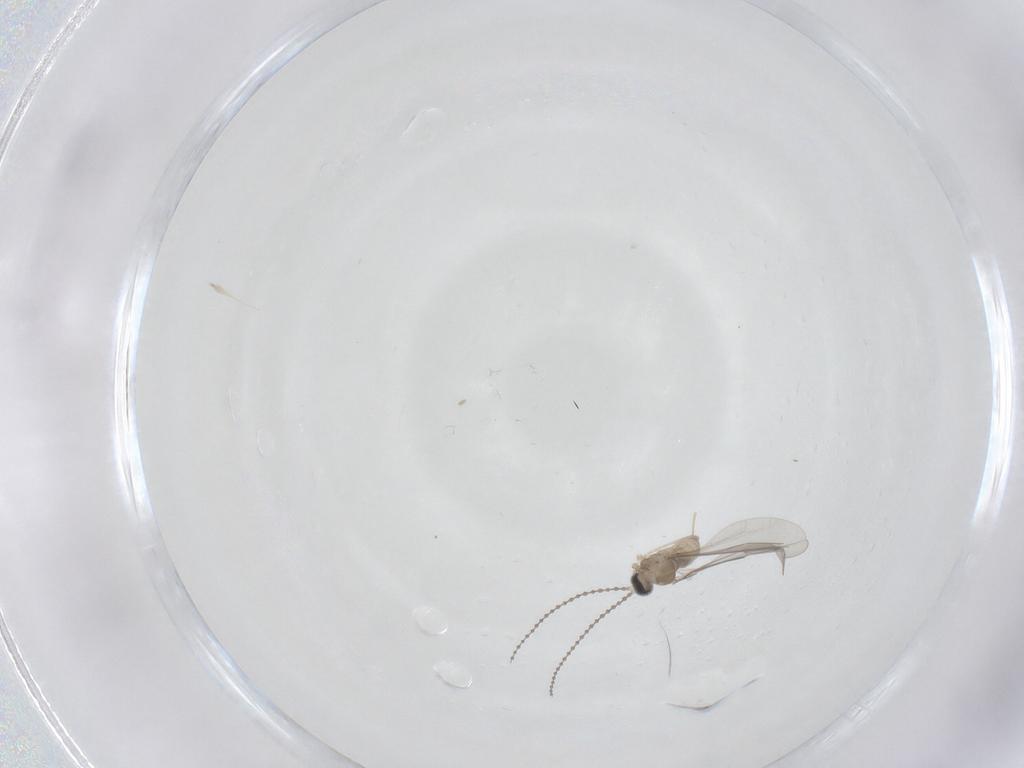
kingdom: Animalia
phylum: Arthropoda
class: Insecta
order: Diptera
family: Cecidomyiidae
